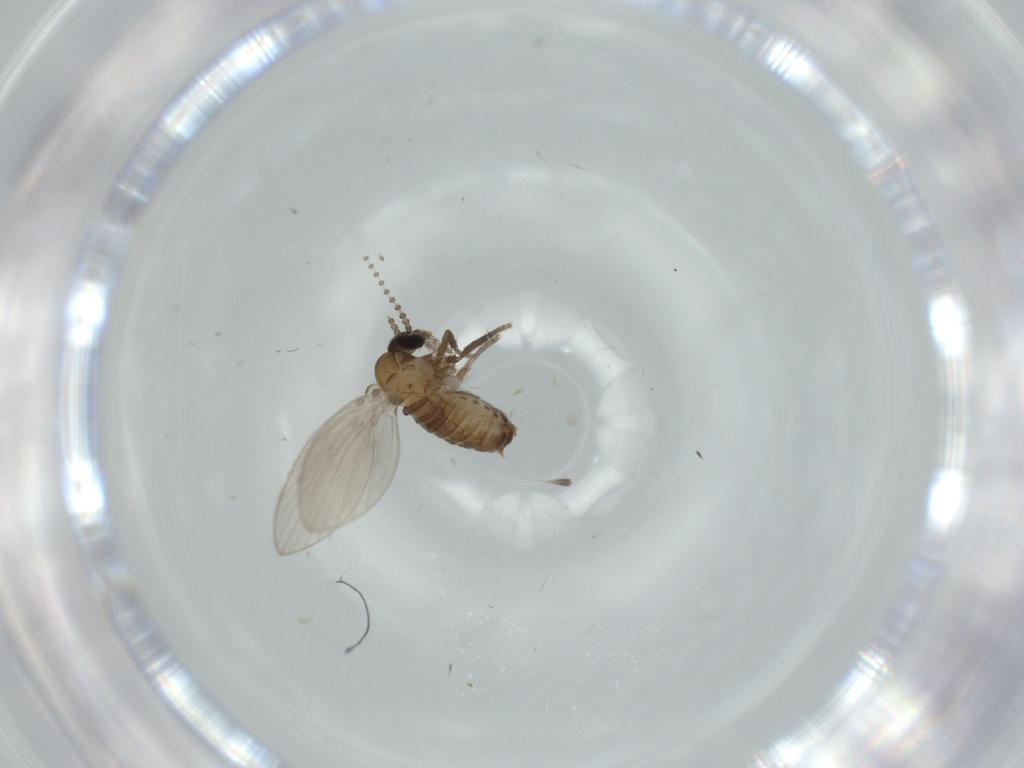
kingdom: Animalia
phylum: Arthropoda
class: Insecta
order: Diptera
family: Psychodidae
